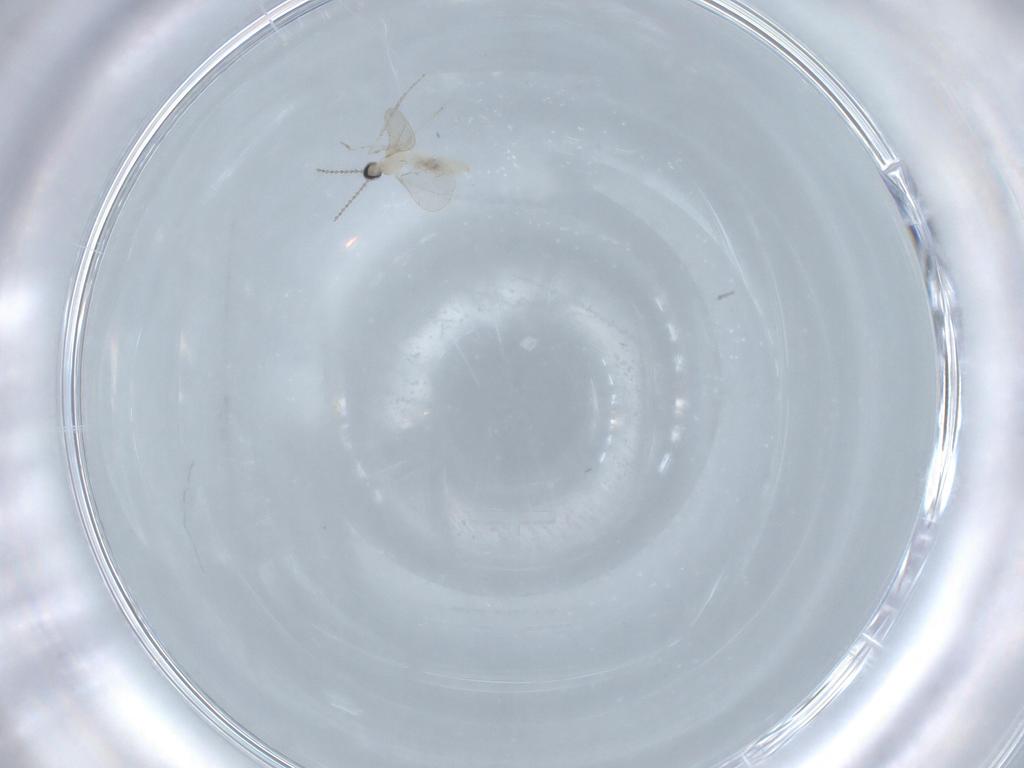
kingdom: Animalia
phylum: Arthropoda
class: Insecta
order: Diptera
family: Cecidomyiidae
